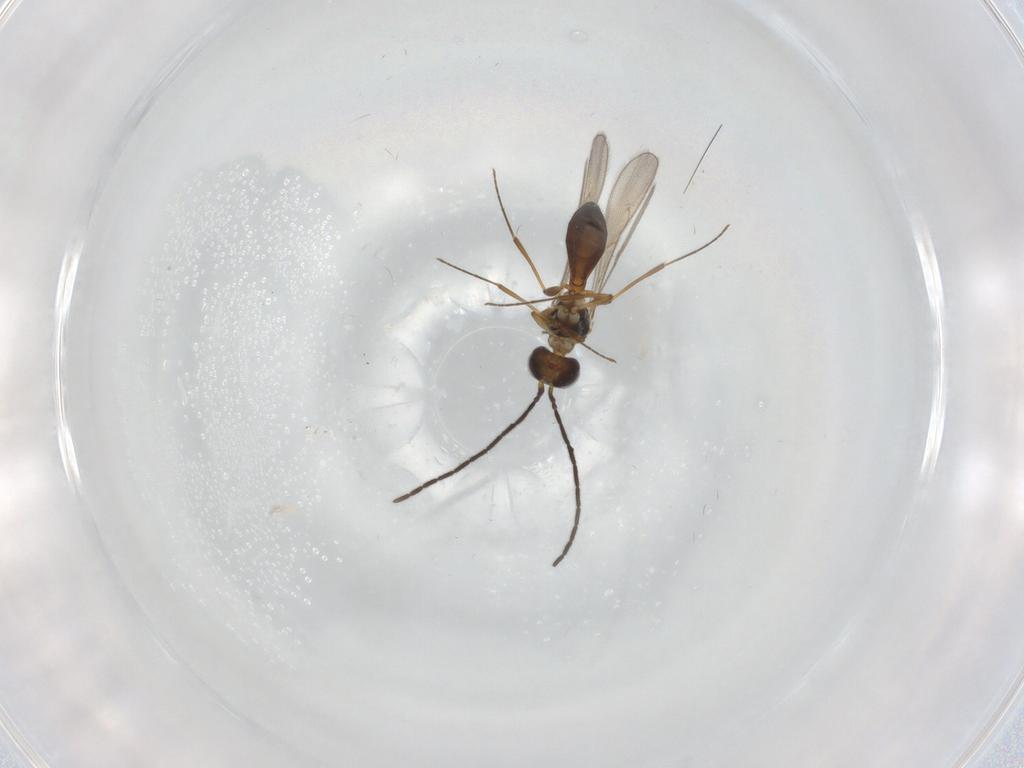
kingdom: Animalia
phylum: Arthropoda
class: Insecta
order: Hymenoptera
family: Scelionidae
